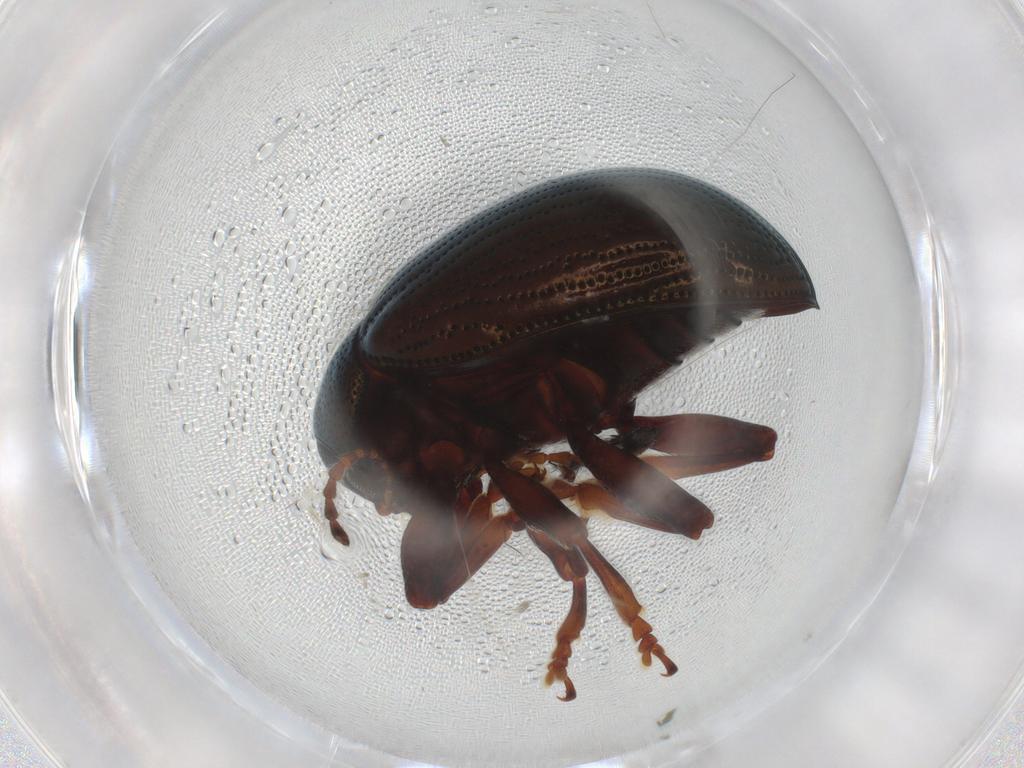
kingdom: Animalia
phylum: Arthropoda
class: Insecta
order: Coleoptera
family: Chrysomelidae
